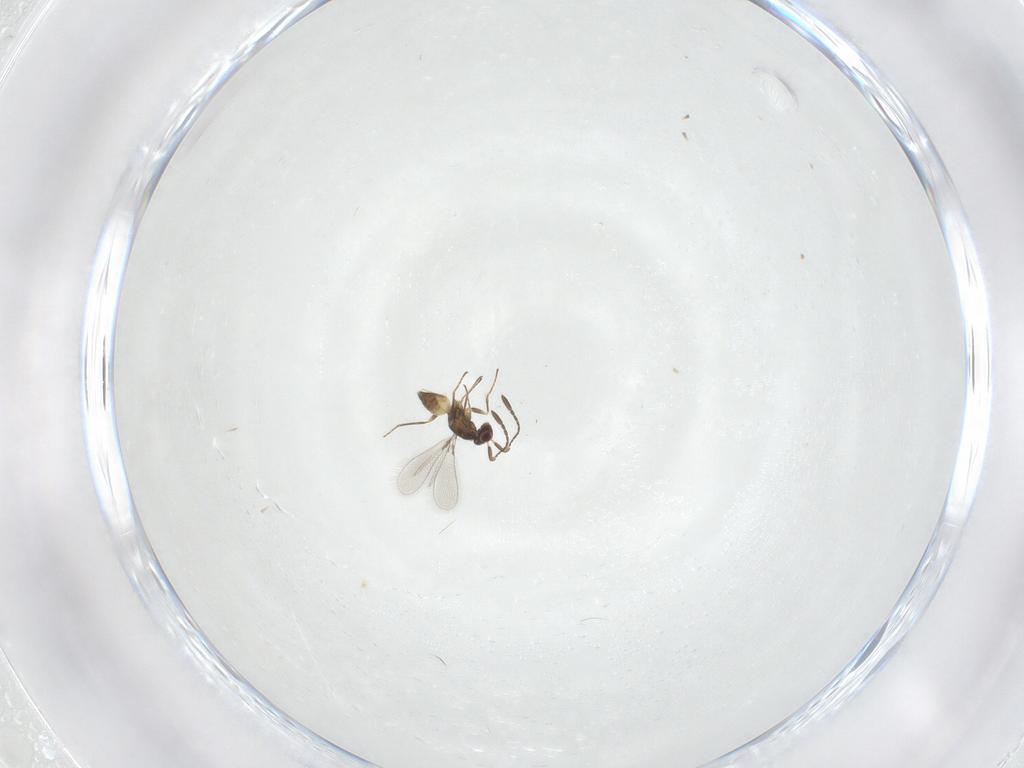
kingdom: Animalia
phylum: Arthropoda
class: Insecta
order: Hymenoptera
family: Mymaridae
